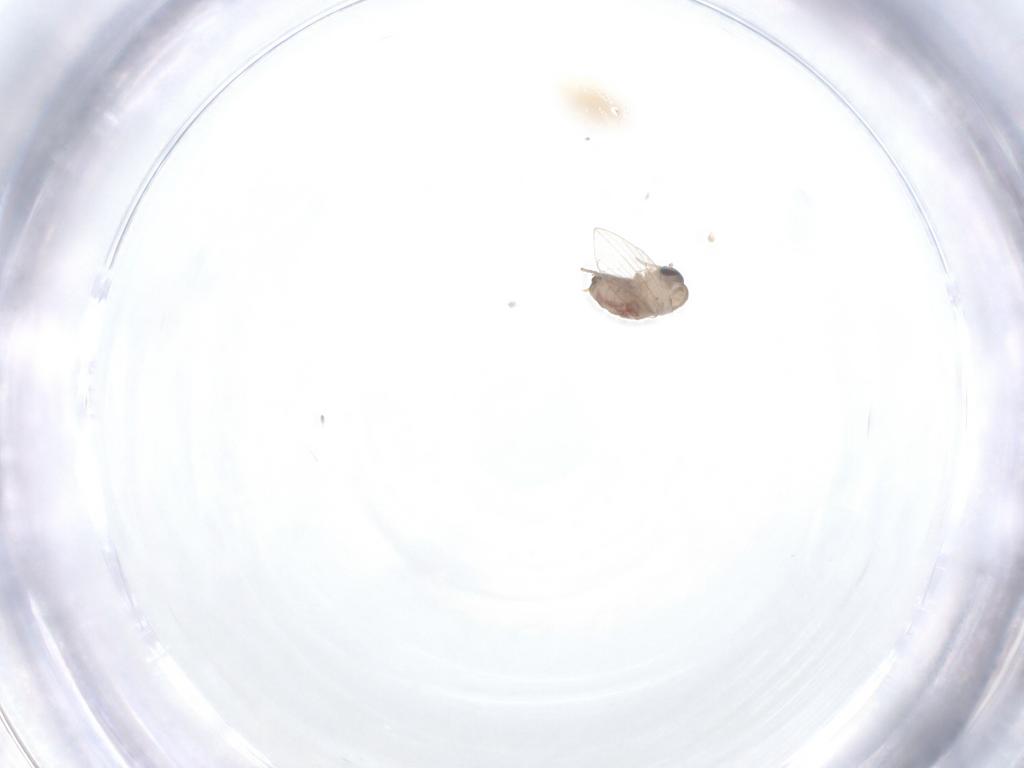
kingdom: Animalia
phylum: Arthropoda
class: Insecta
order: Diptera
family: Psychodidae
